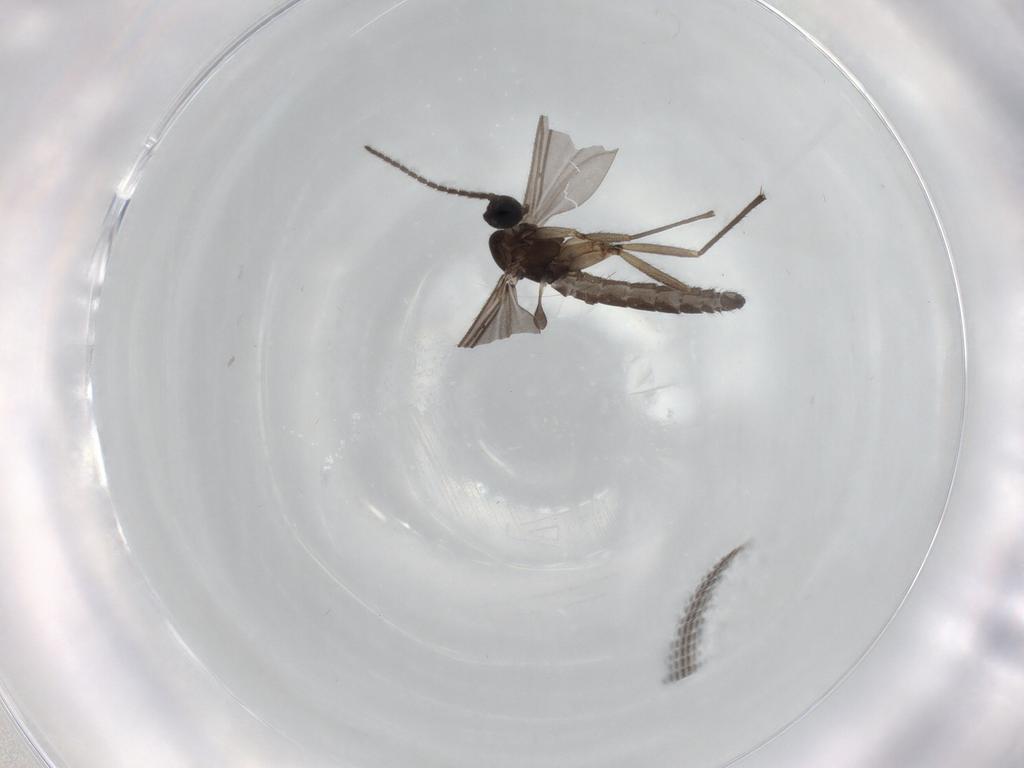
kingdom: Animalia
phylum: Arthropoda
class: Insecta
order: Diptera
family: Sciaridae
